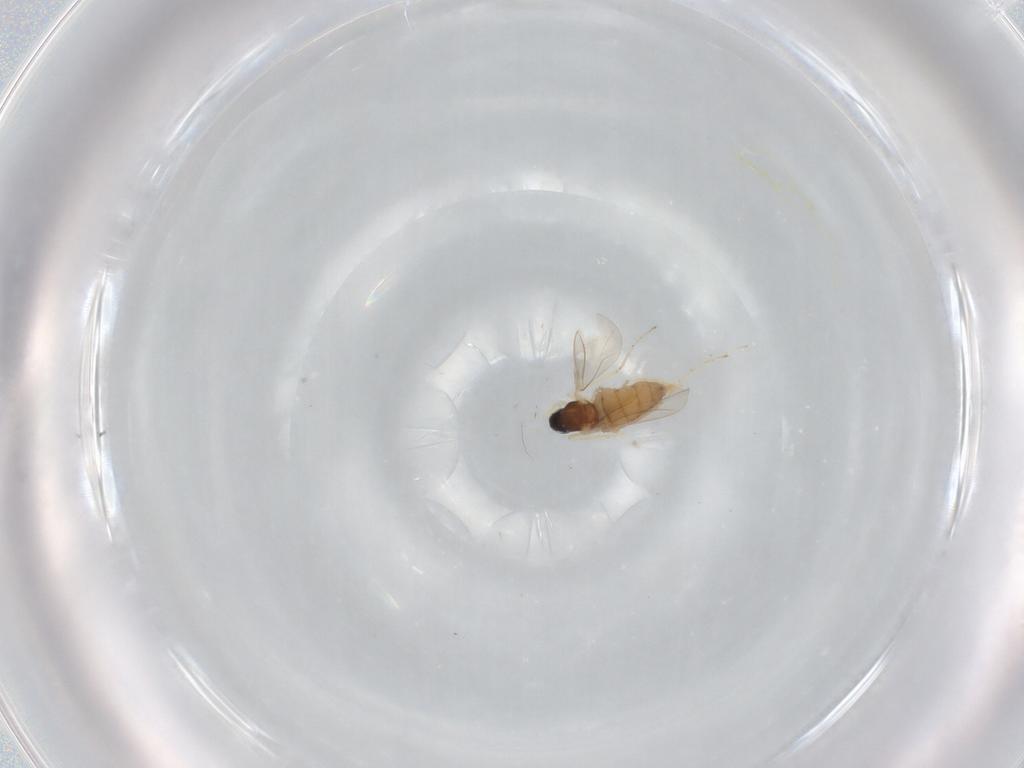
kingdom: Animalia
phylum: Arthropoda
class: Insecta
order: Diptera
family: Cecidomyiidae
